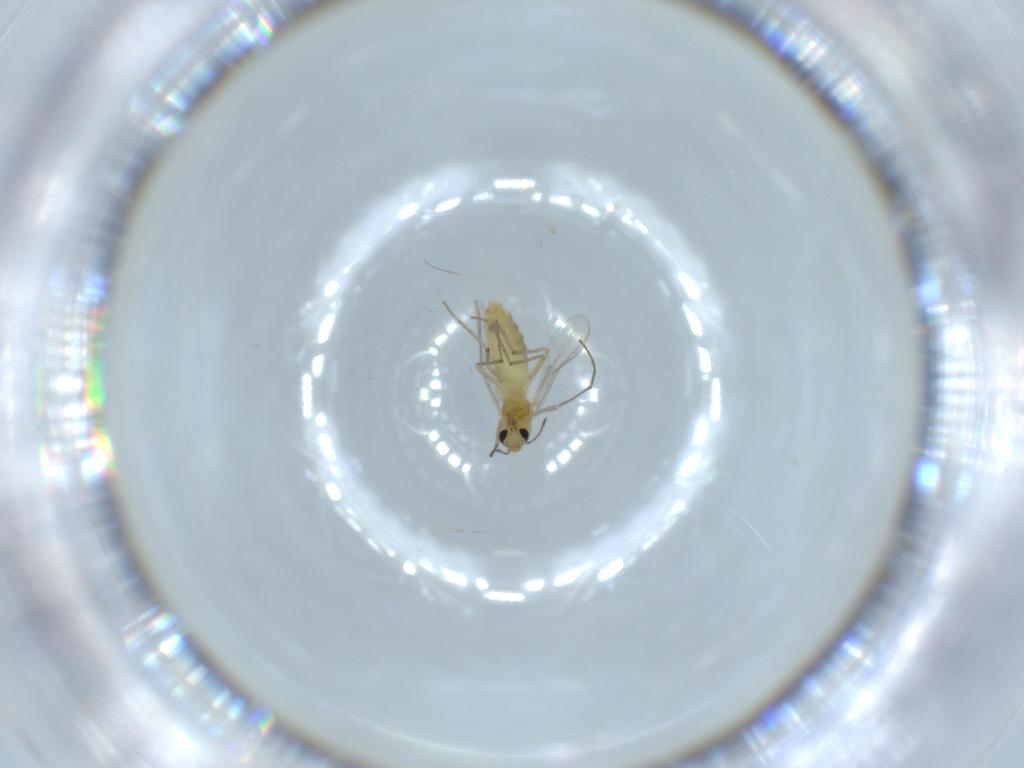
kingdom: Animalia
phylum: Arthropoda
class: Insecta
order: Diptera
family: Chironomidae
